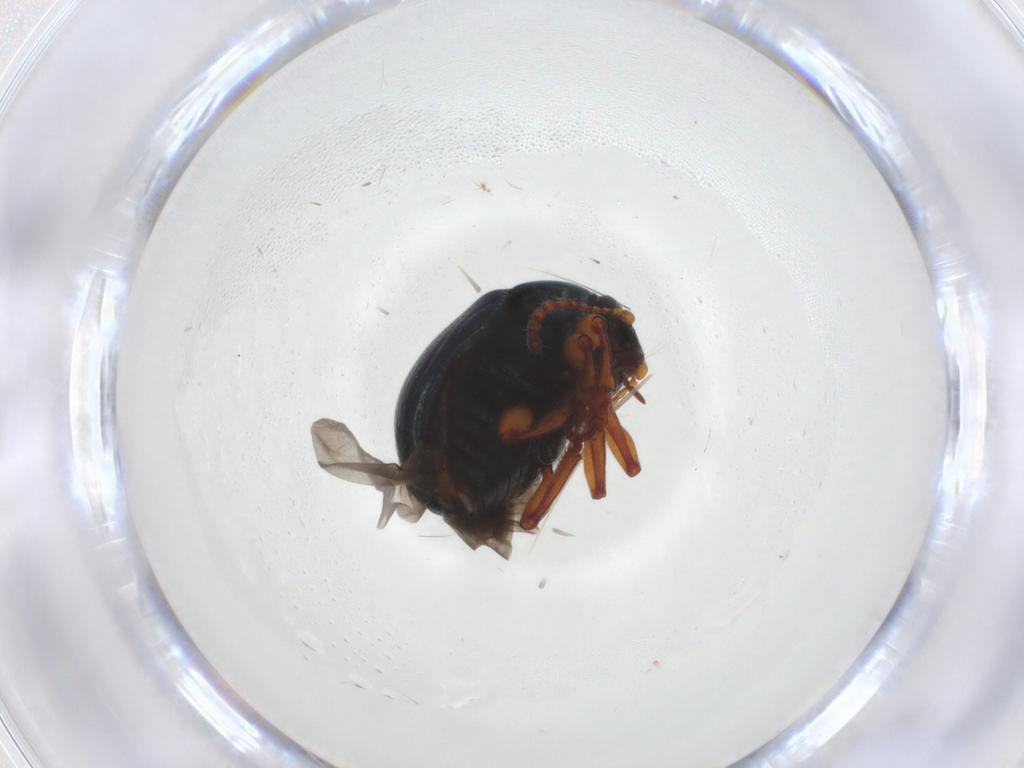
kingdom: Animalia
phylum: Arthropoda
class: Insecta
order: Coleoptera
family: Chrysomelidae
